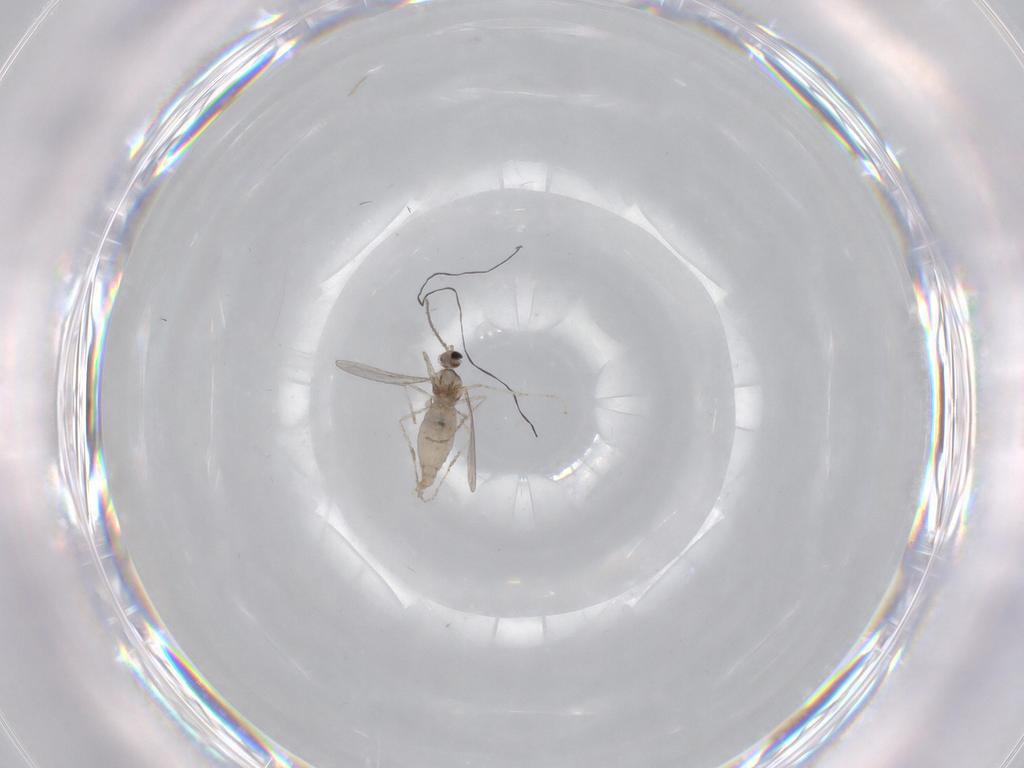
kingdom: Animalia
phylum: Arthropoda
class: Insecta
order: Diptera
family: Chironomidae
